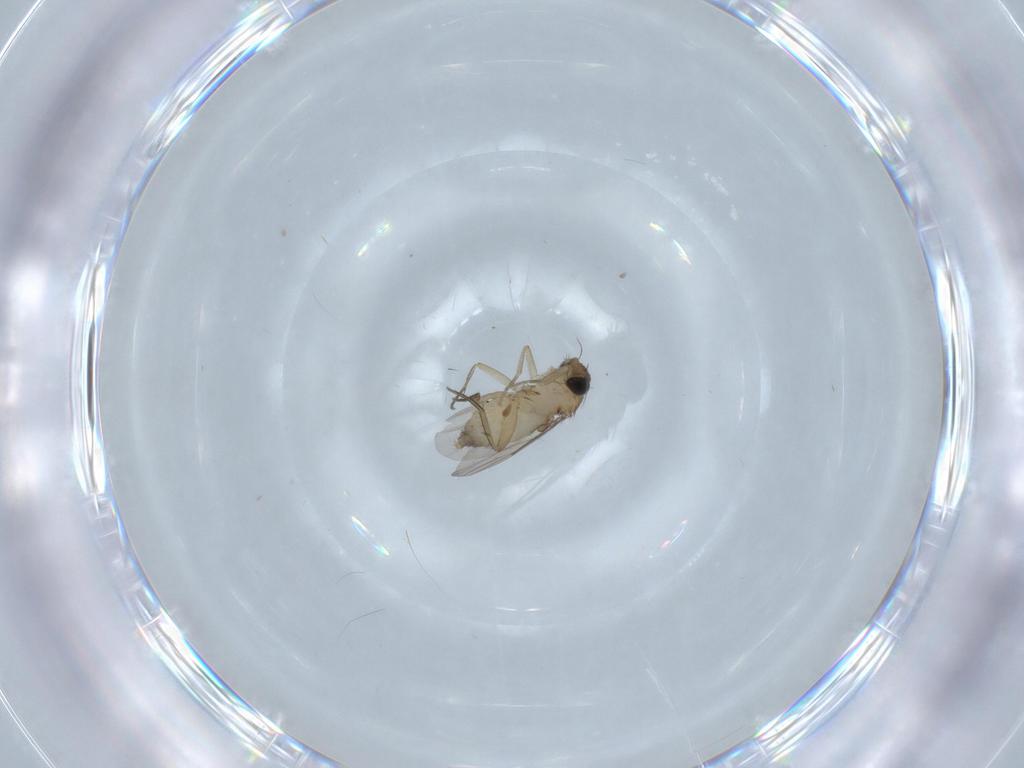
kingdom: Animalia
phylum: Arthropoda
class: Insecta
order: Diptera
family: Phoridae
